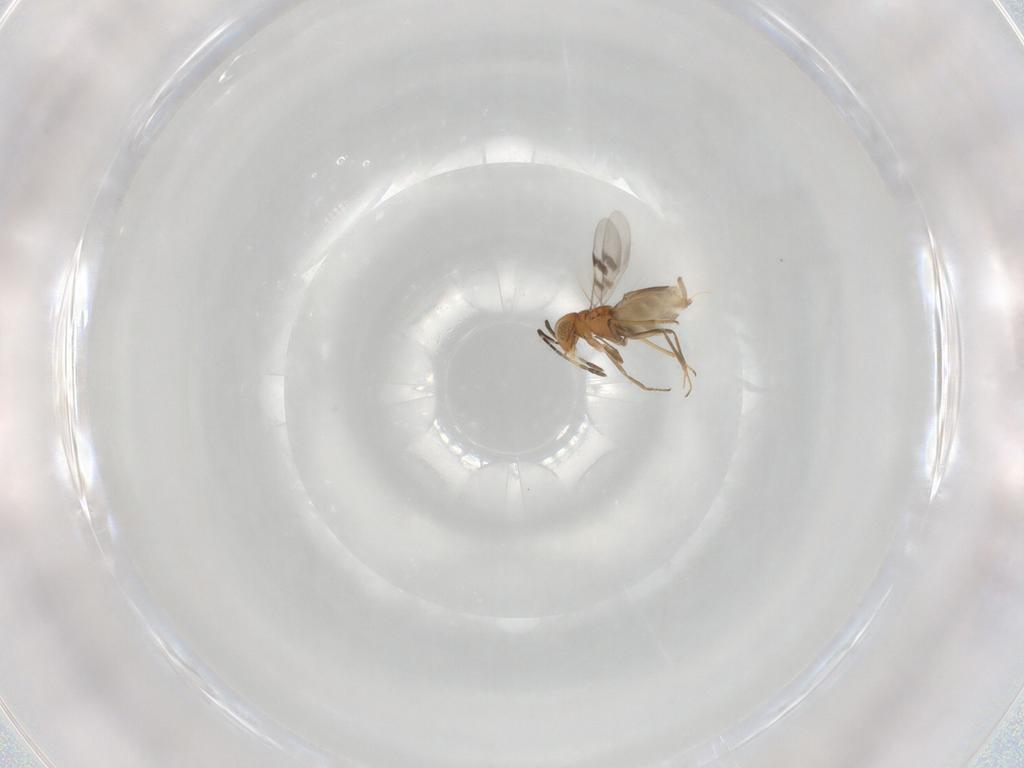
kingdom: Animalia
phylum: Arthropoda
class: Insecta
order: Hymenoptera
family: Encyrtidae
